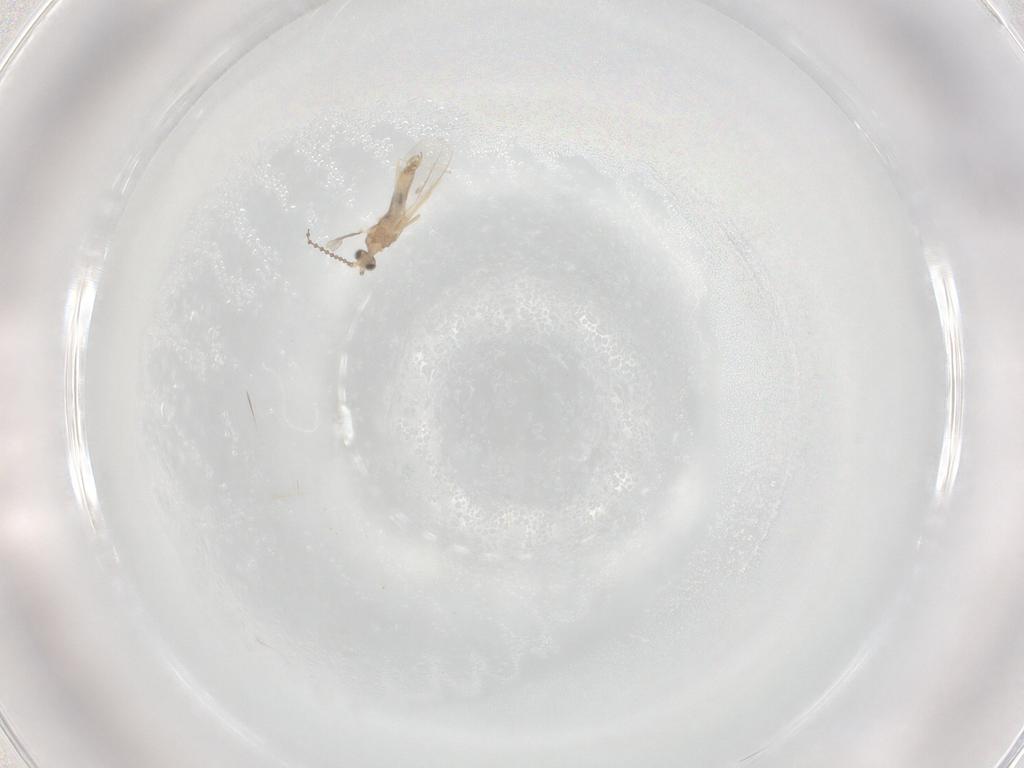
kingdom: Animalia
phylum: Arthropoda
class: Insecta
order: Diptera
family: Cecidomyiidae
